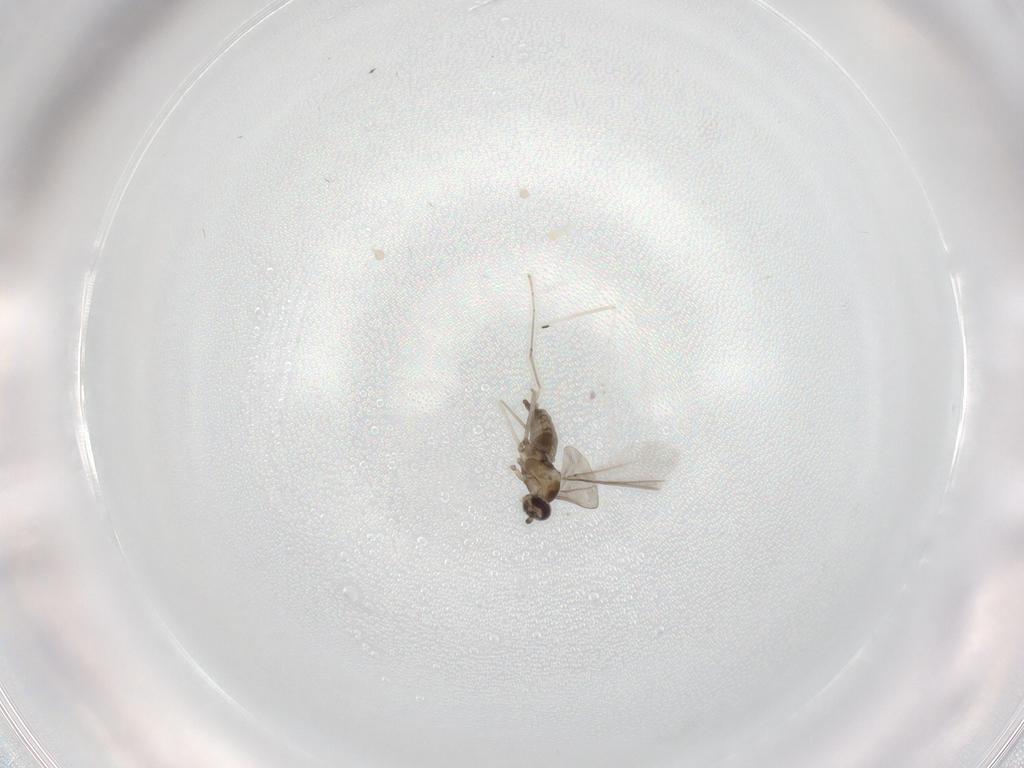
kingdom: Animalia
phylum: Arthropoda
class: Insecta
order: Diptera
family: Cecidomyiidae
